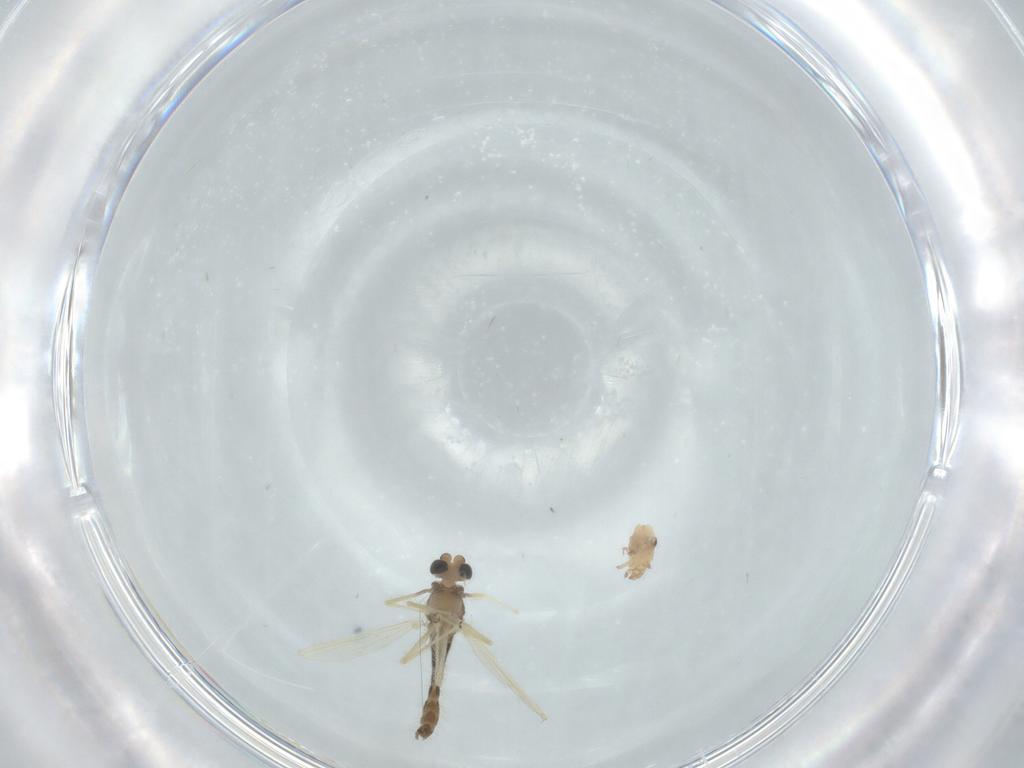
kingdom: Animalia
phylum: Arthropoda
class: Insecta
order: Diptera
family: Chironomidae
